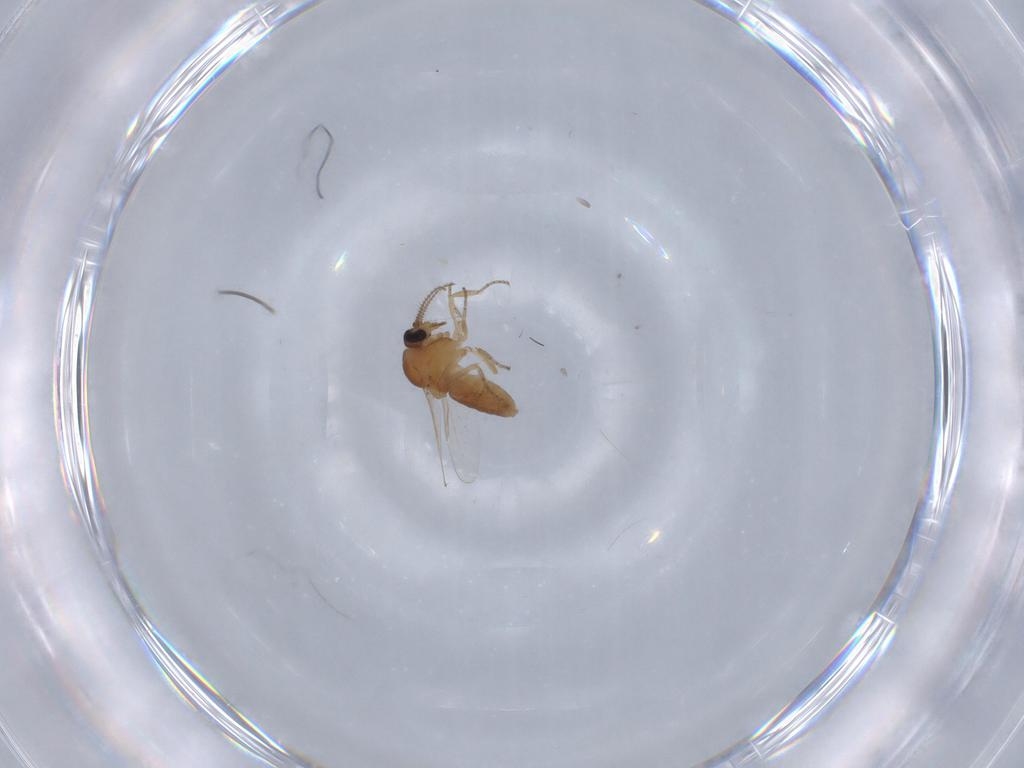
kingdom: Animalia
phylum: Arthropoda
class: Insecta
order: Diptera
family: Ceratopogonidae
